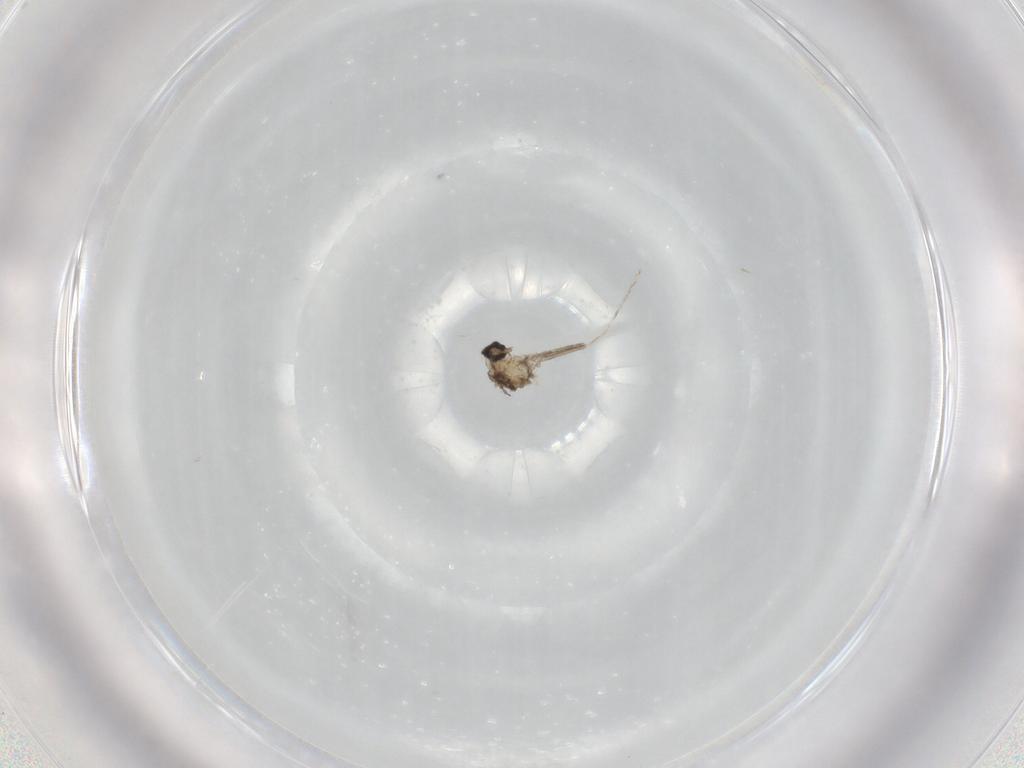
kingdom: Animalia
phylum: Arthropoda
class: Insecta
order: Diptera
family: Cecidomyiidae
